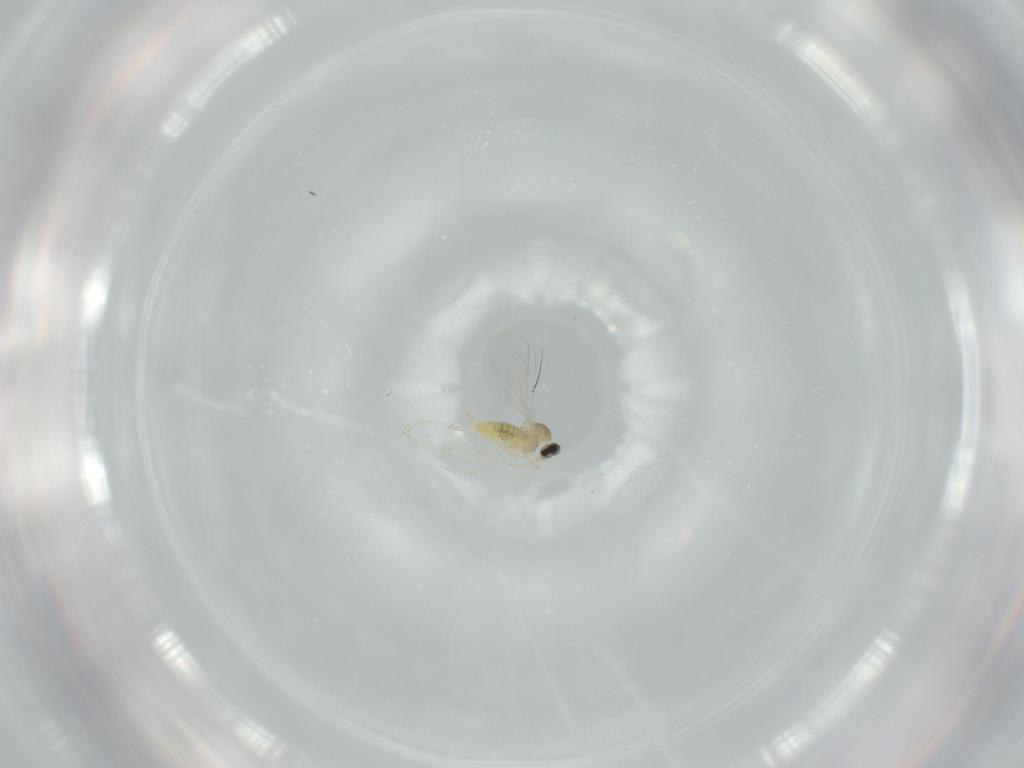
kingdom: Animalia
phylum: Arthropoda
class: Insecta
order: Diptera
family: Cecidomyiidae
